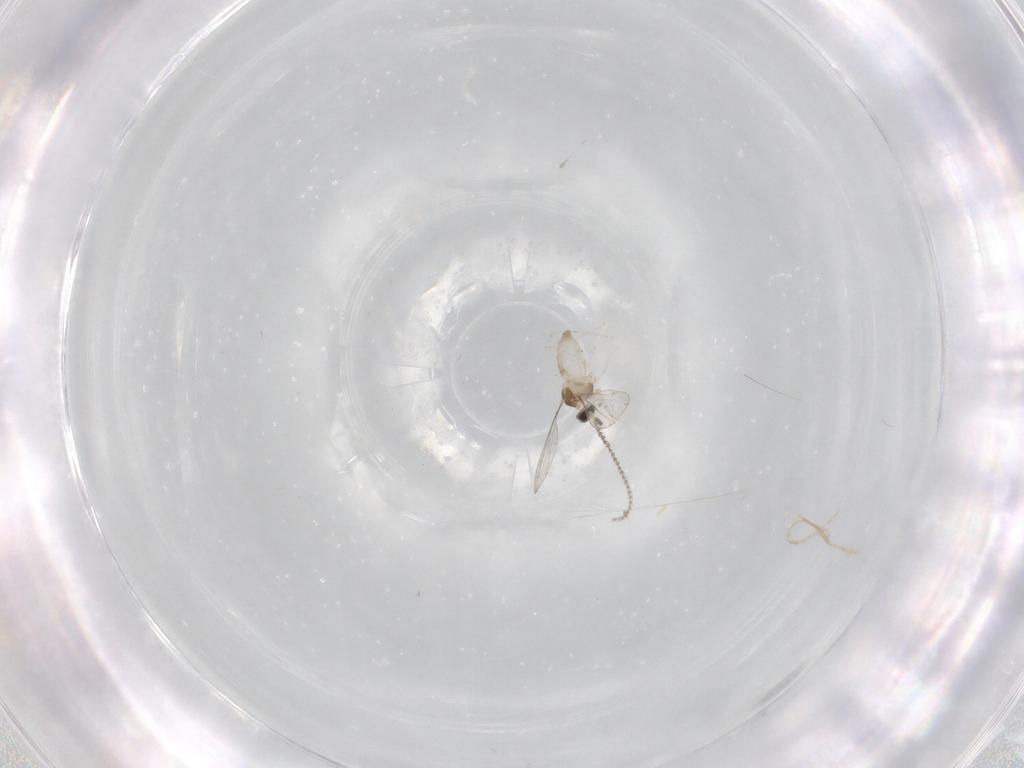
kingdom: Animalia
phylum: Arthropoda
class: Insecta
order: Diptera
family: Cecidomyiidae
